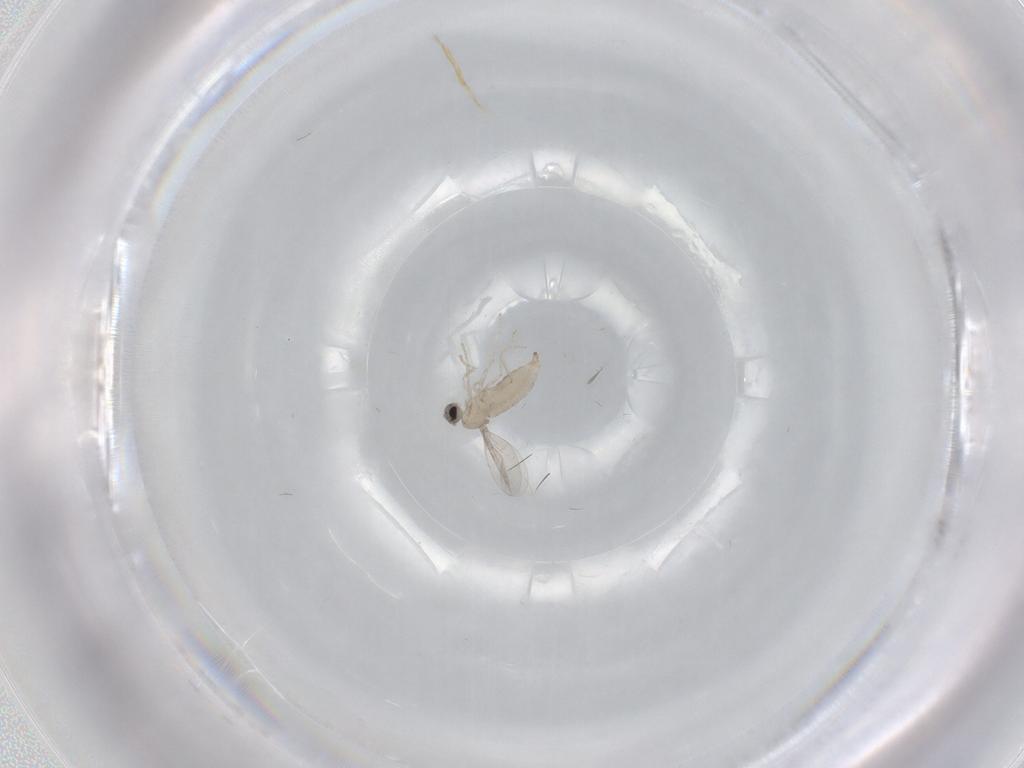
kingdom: Animalia
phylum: Arthropoda
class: Insecta
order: Diptera
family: Cecidomyiidae
